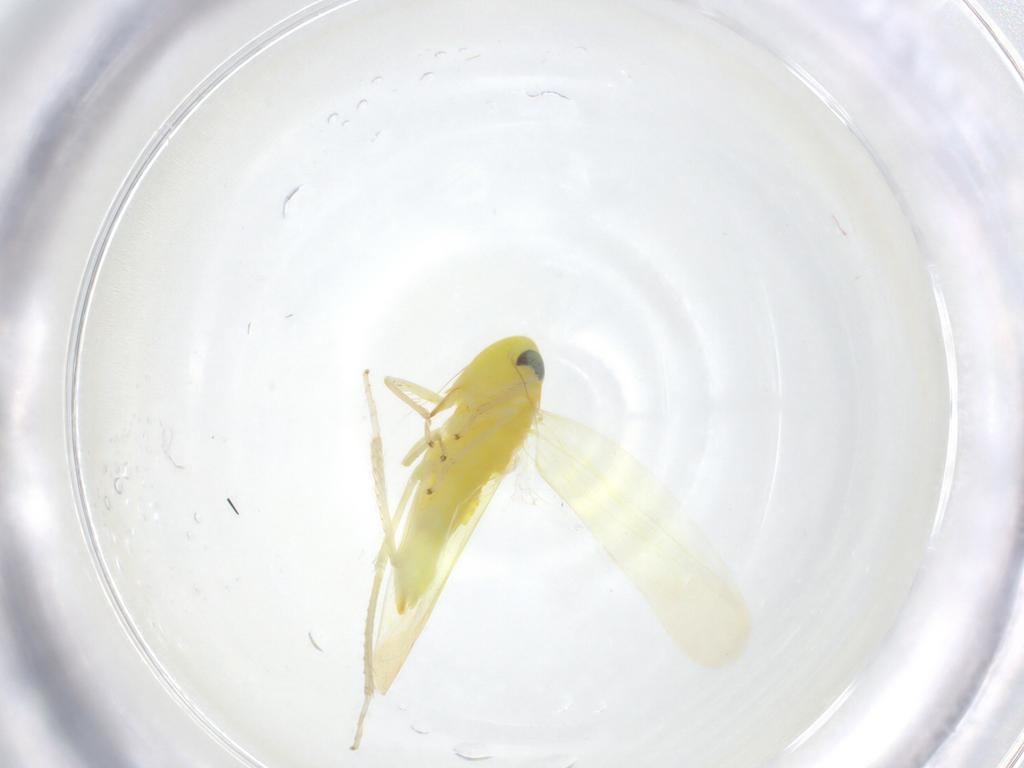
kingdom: Animalia
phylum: Arthropoda
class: Insecta
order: Hemiptera
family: Cicadellidae
